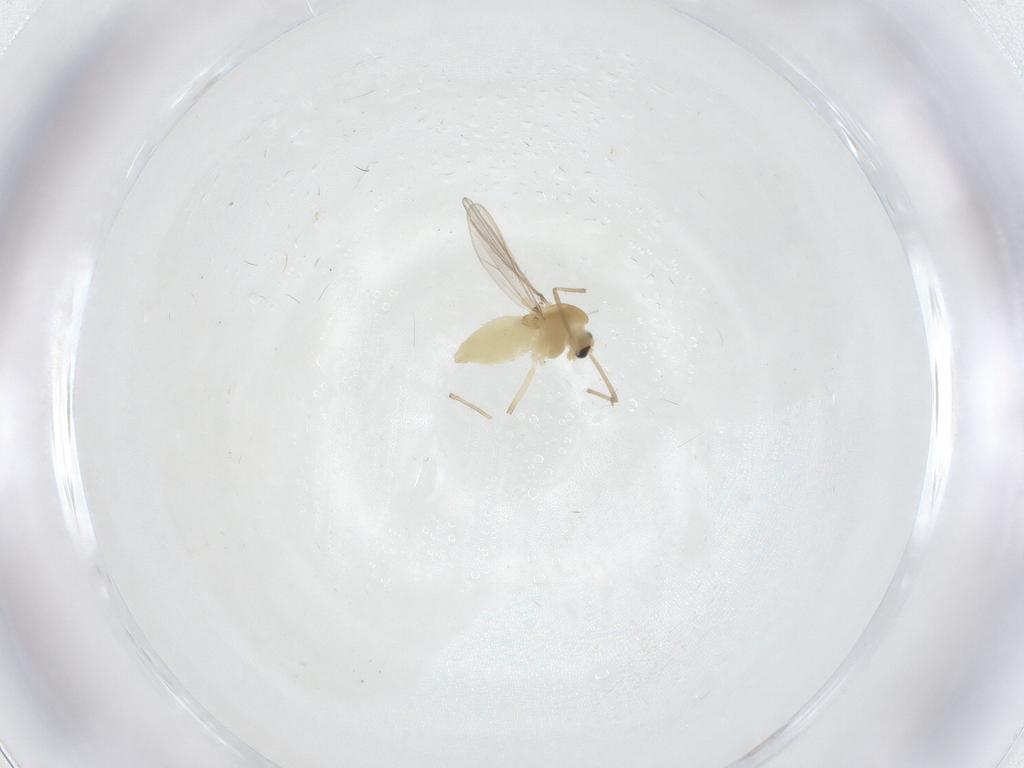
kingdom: Animalia
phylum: Arthropoda
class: Insecta
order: Diptera
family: Chironomidae
